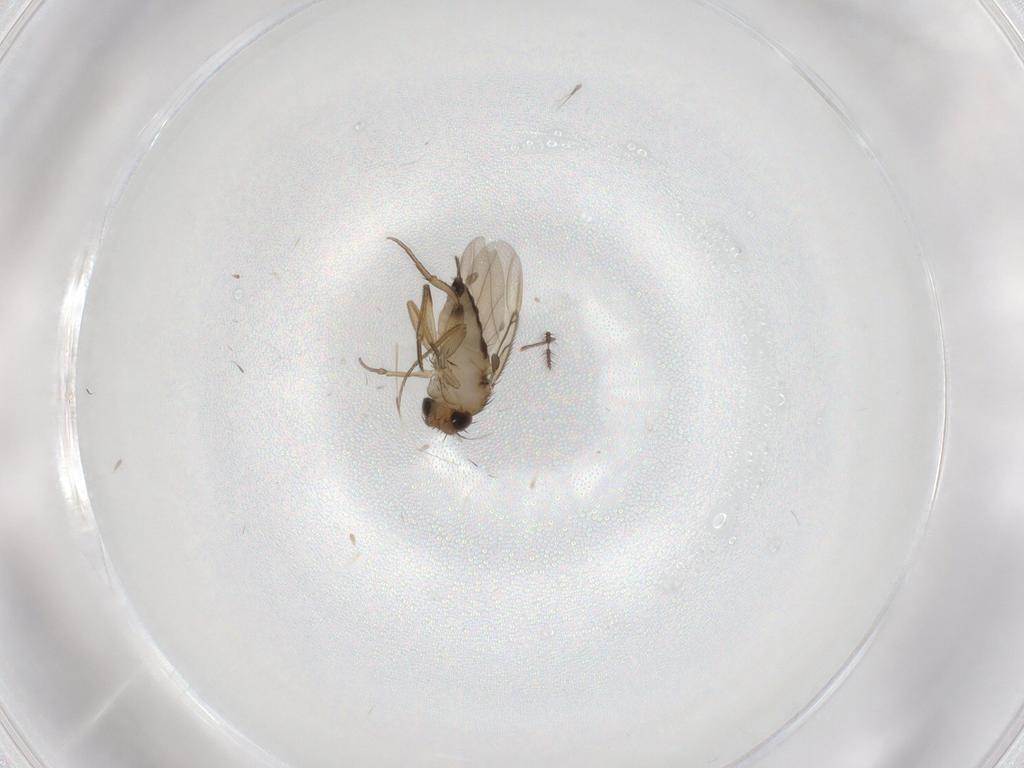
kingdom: Animalia
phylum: Arthropoda
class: Insecta
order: Diptera
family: Phoridae
